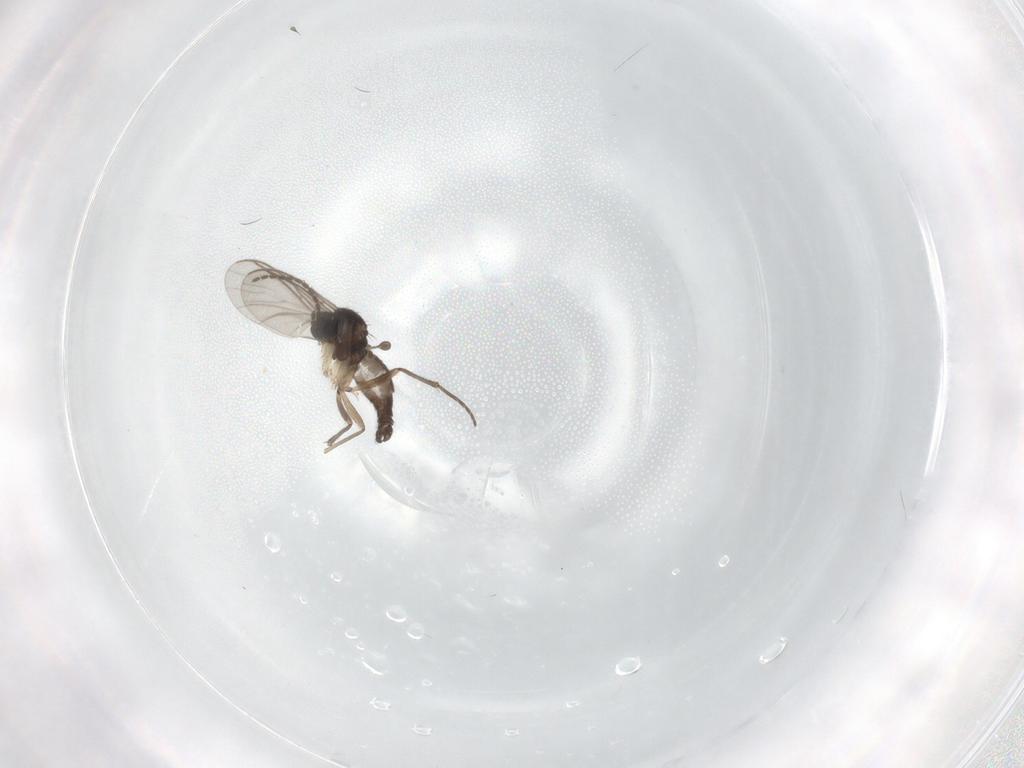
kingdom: Animalia
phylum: Arthropoda
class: Insecta
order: Diptera
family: Sciaridae
